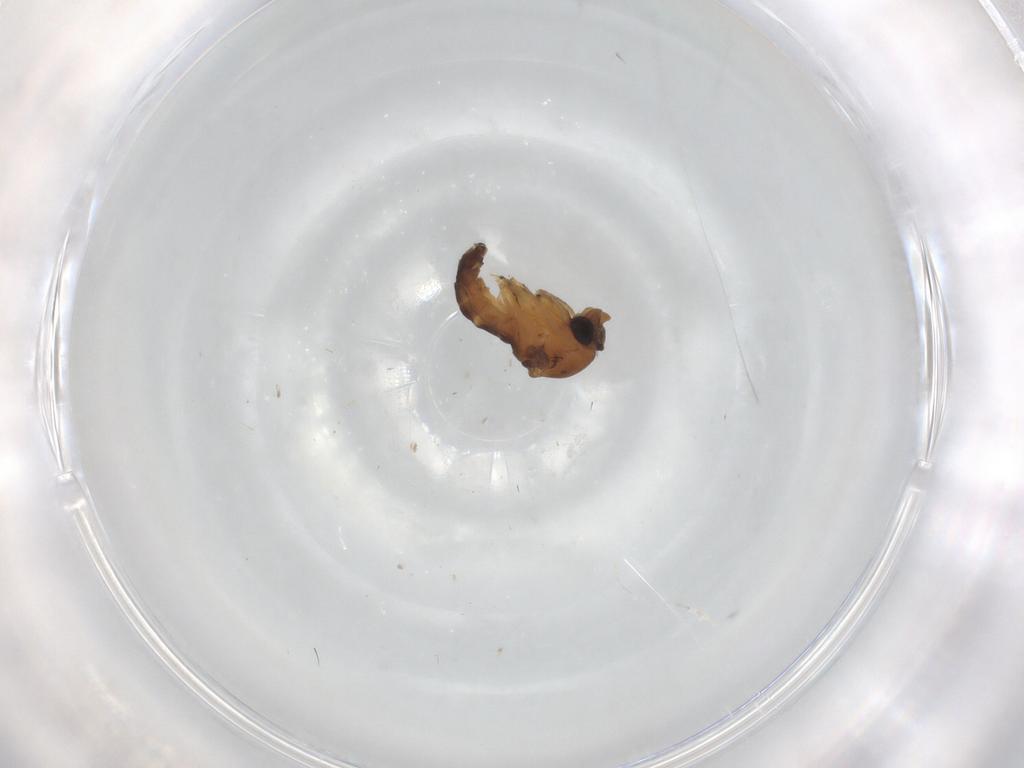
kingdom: Animalia
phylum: Arthropoda
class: Insecta
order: Diptera
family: Phoridae
